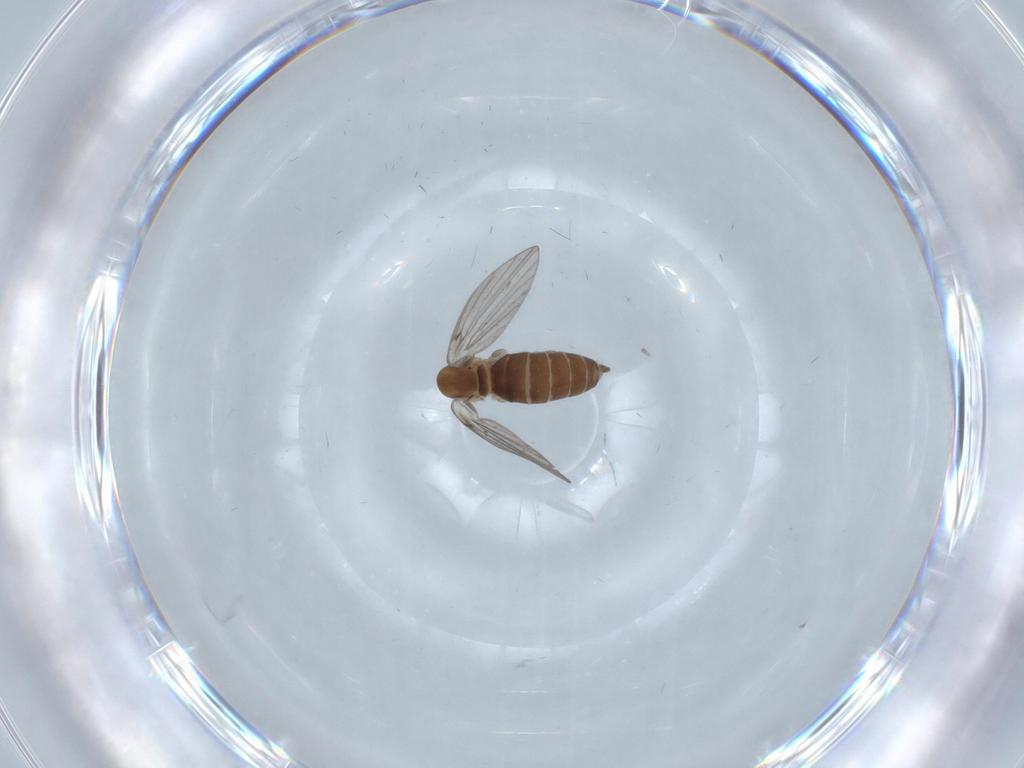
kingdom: Animalia
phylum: Arthropoda
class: Insecta
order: Diptera
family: Psychodidae
